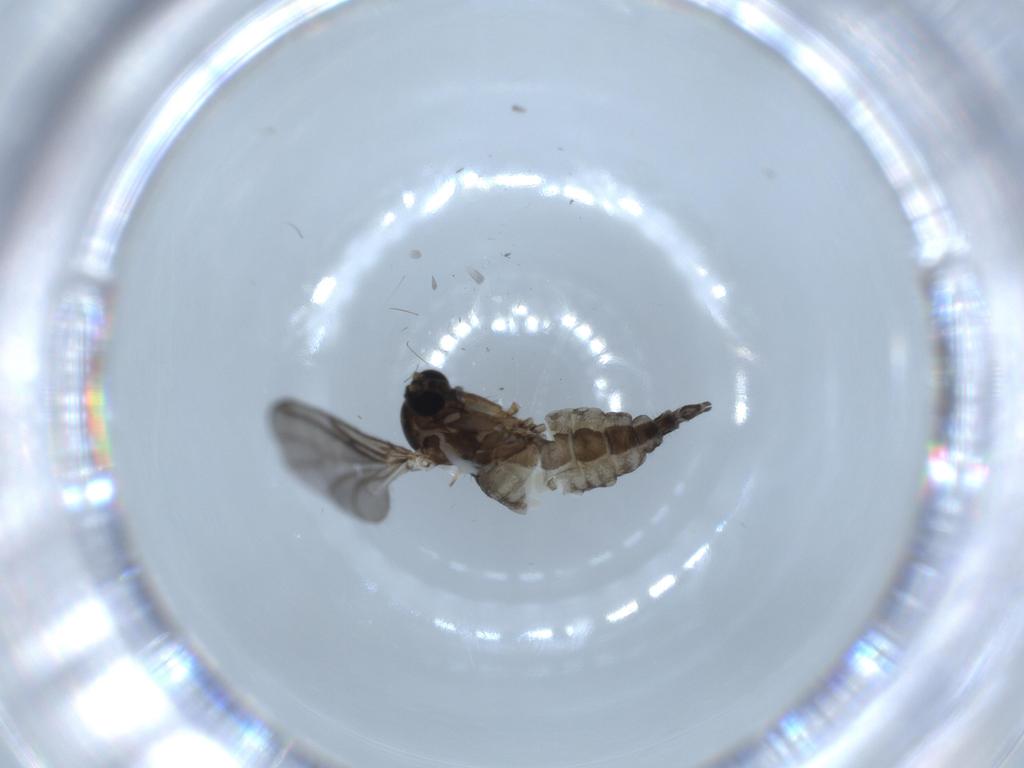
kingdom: Animalia
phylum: Arthropoda
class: Insecta
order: Diptera
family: Sciaridae
